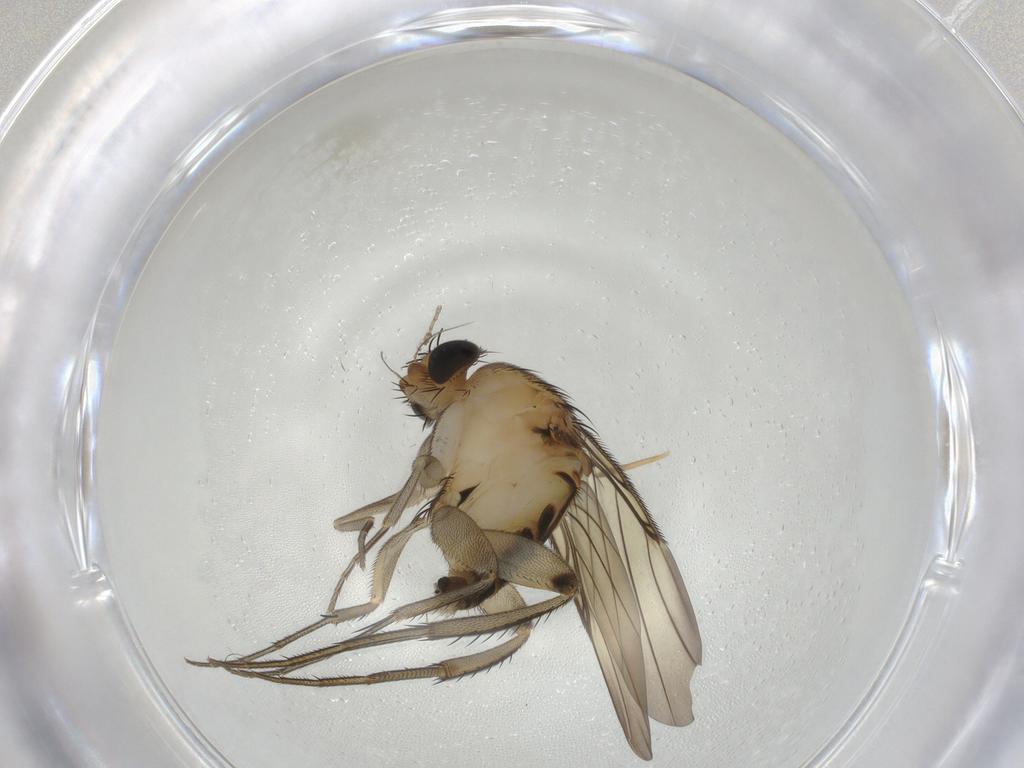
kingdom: Animalia
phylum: Arthropoda
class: Insecta
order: Diptera
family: Phoridae
